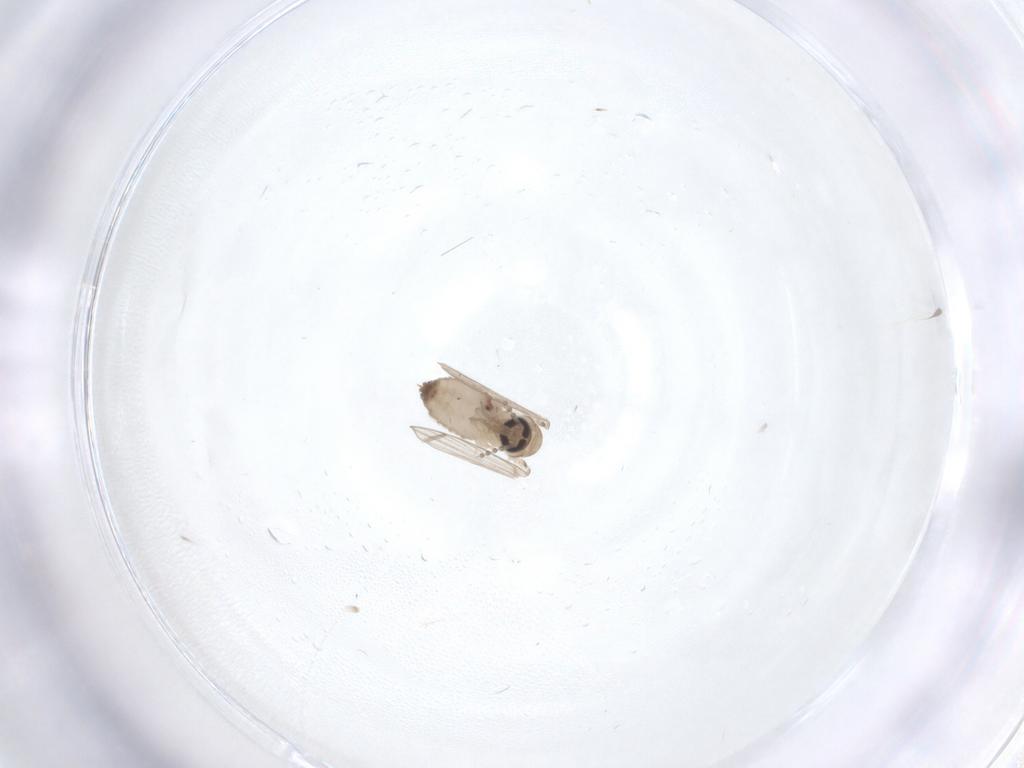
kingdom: Animalia
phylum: Arthropoda
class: Insecta
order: Diptera
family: Psychodidae
